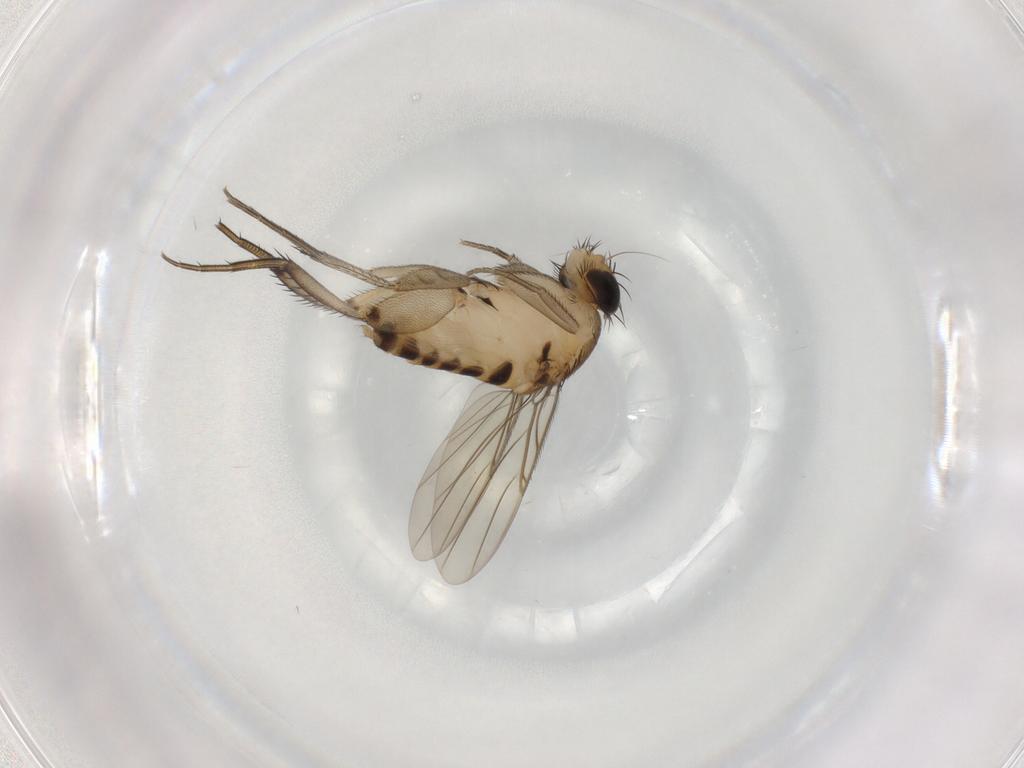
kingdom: Animalia
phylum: Arthropoda
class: Insecta
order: Diptera
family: Phoridae
